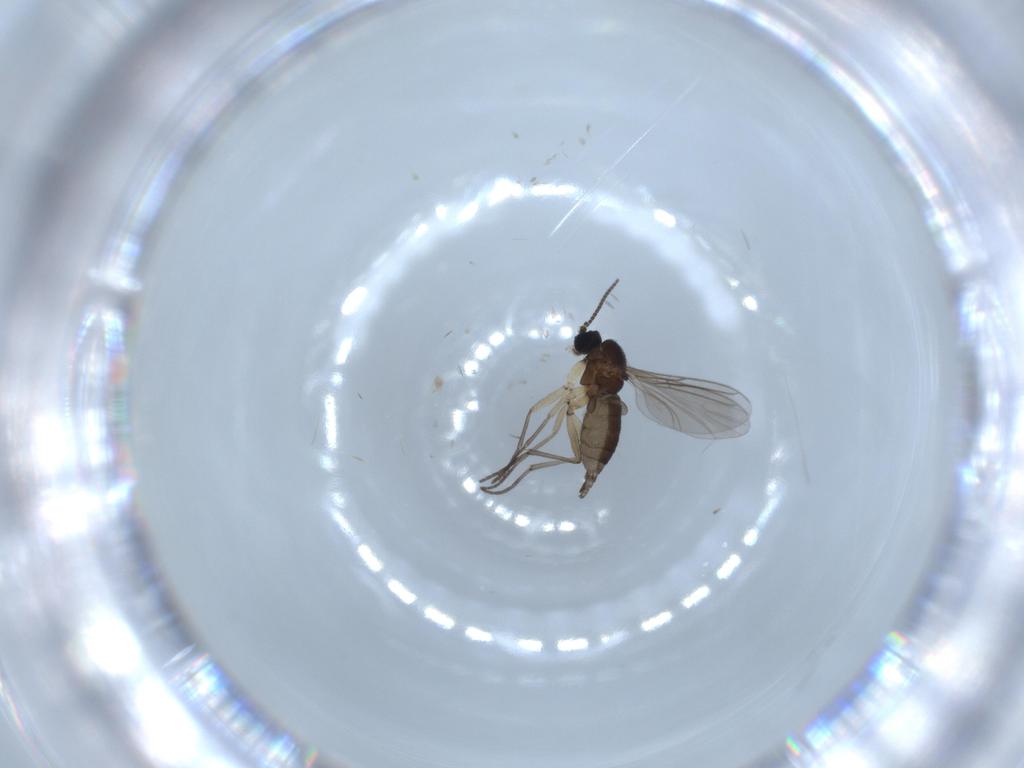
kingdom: Animalia
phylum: Arthropoda
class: Insecta
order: Diptera
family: Sciaridae
